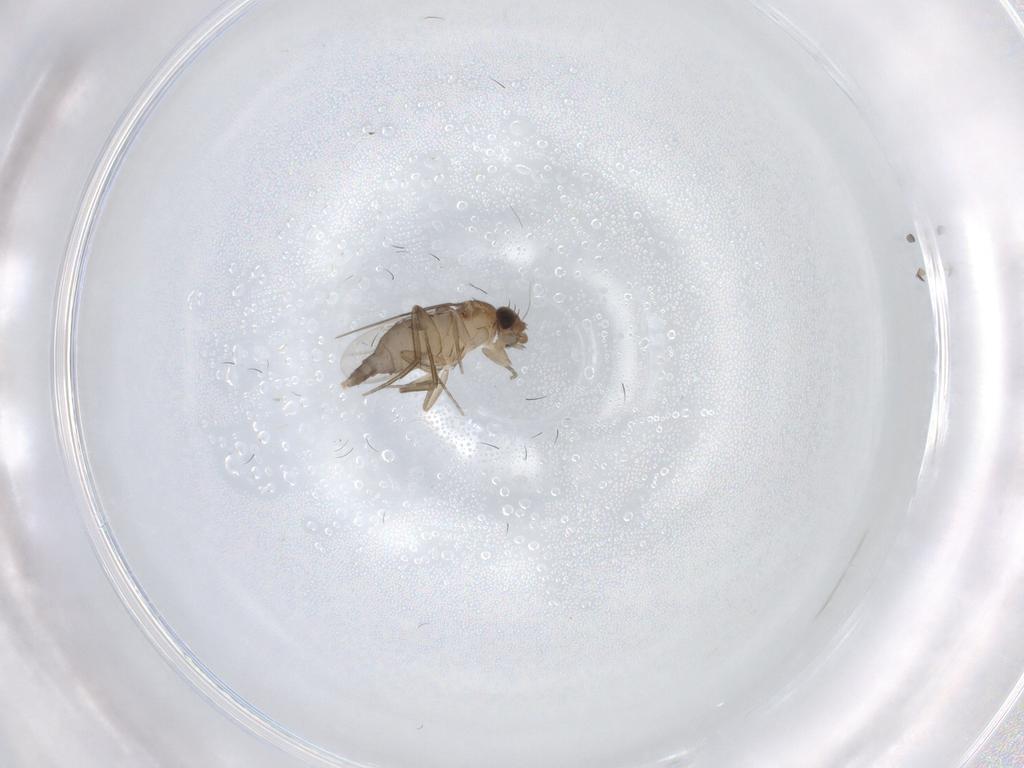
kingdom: Animalia
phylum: Arthropoda
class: Insecta
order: Diptera
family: Phoridae
